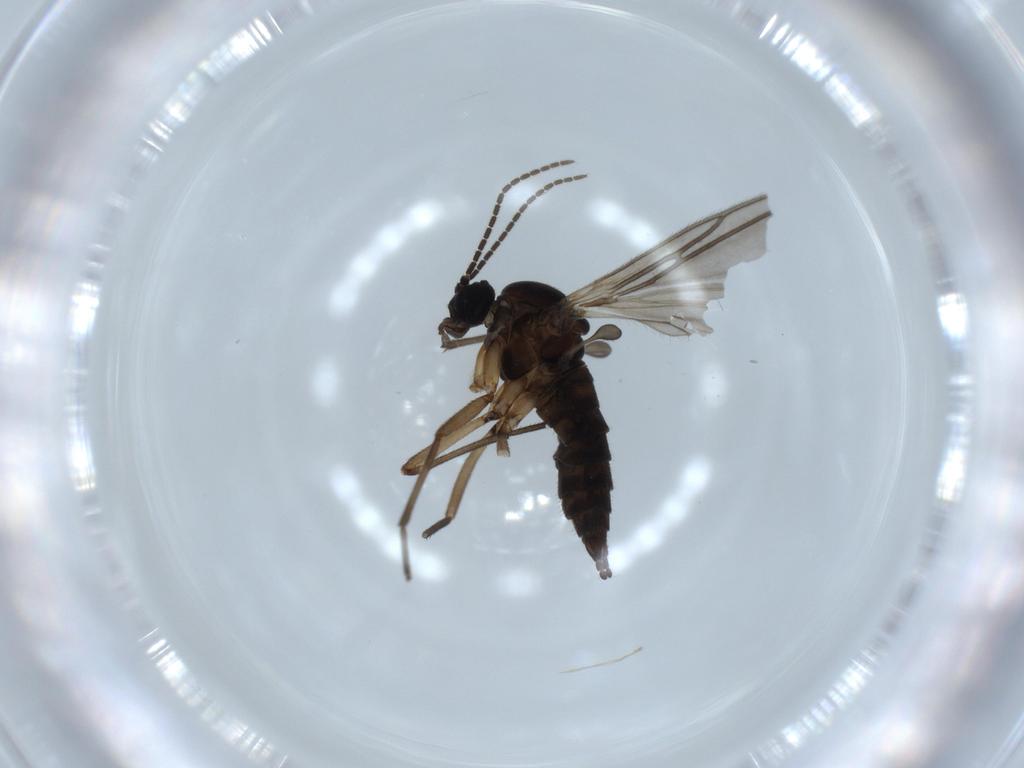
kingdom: Animalia
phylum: Arthropoda
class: Insecta
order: Diptera
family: Sciaridae
